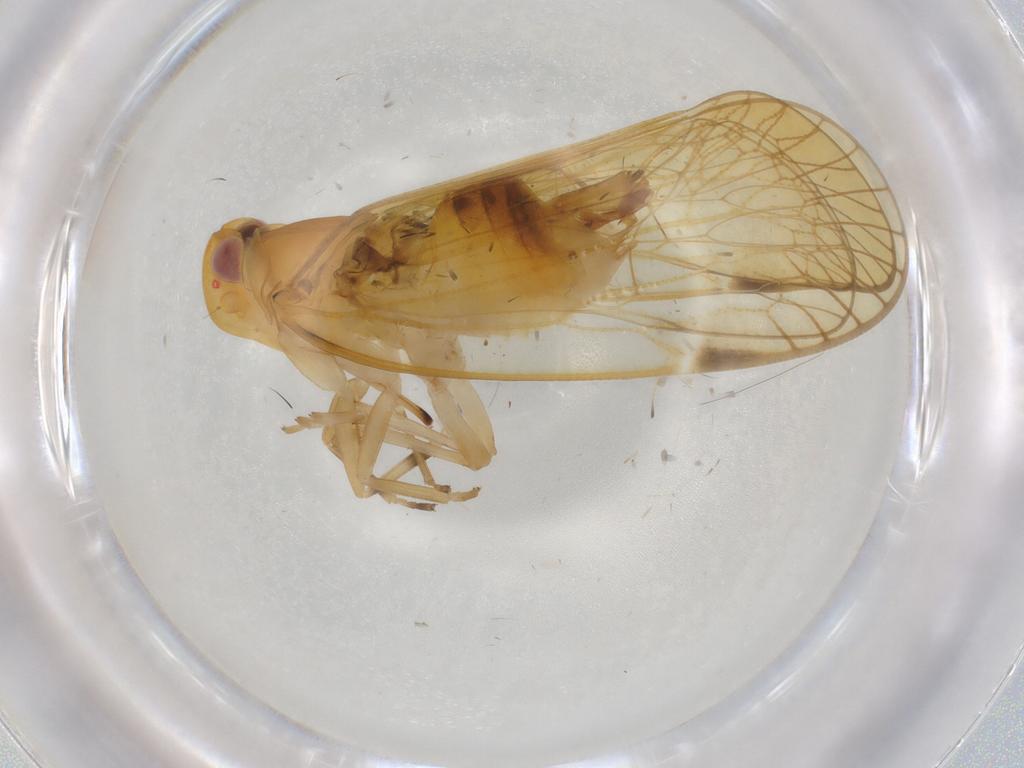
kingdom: Animalia
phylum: Arthropoda
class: Insecta
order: Hemiptera
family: Cixiidae
